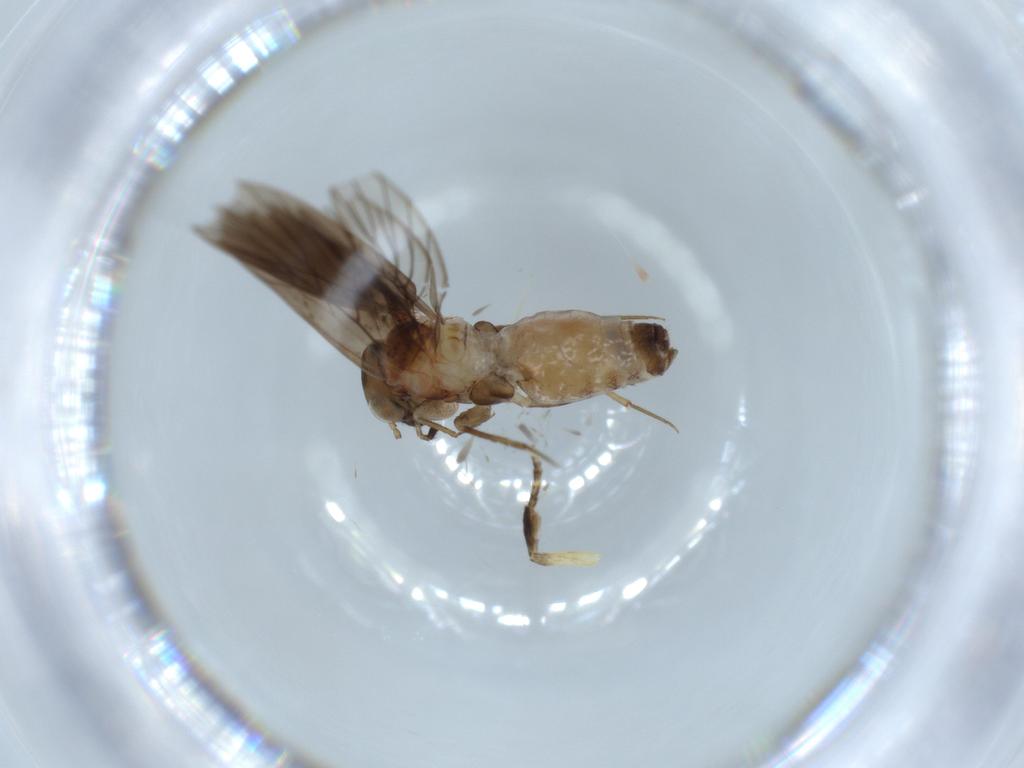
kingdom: Animalia
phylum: Arthropoda
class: Insecta
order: Psocodea
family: Lepidopsocidae
